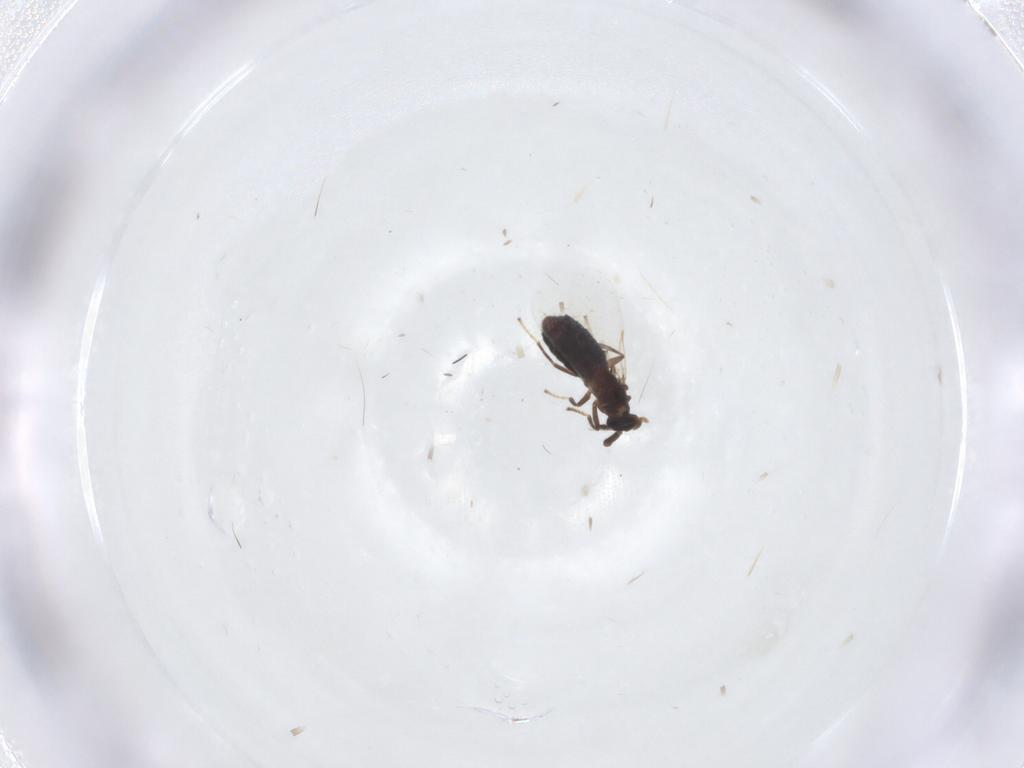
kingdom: Animalia
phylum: Arthropoda
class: Insecta
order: Diptera
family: Scatopsidae
